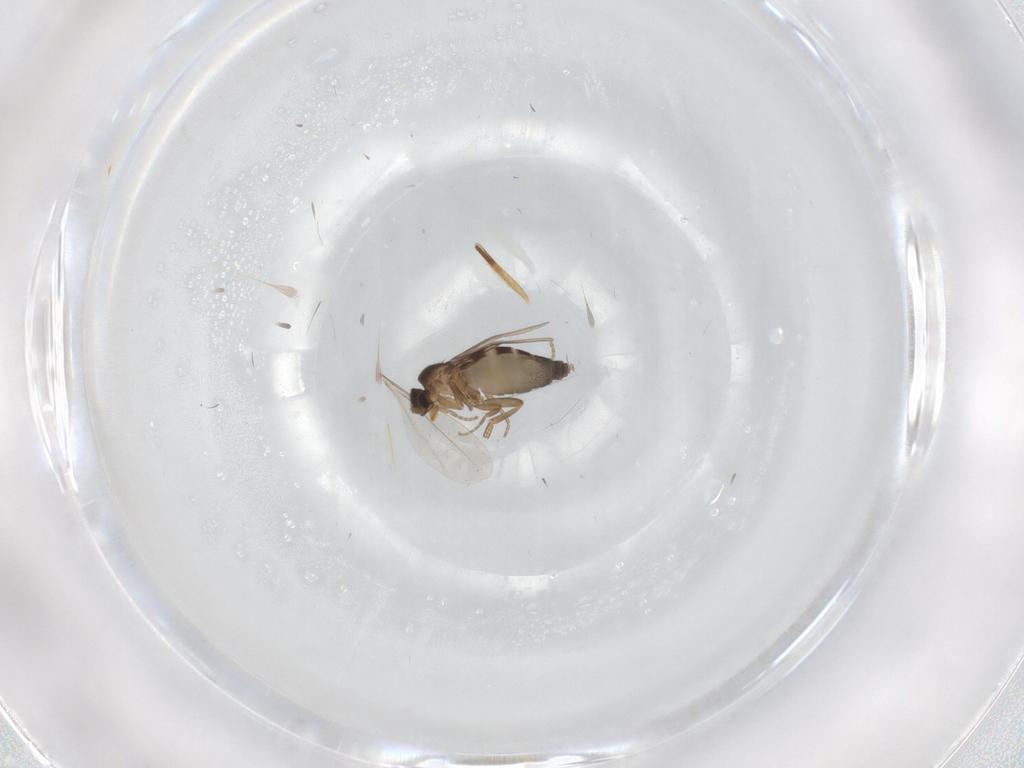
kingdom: Animalia
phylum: Arthropoda
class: Insecta
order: Diptera
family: Phoridae
